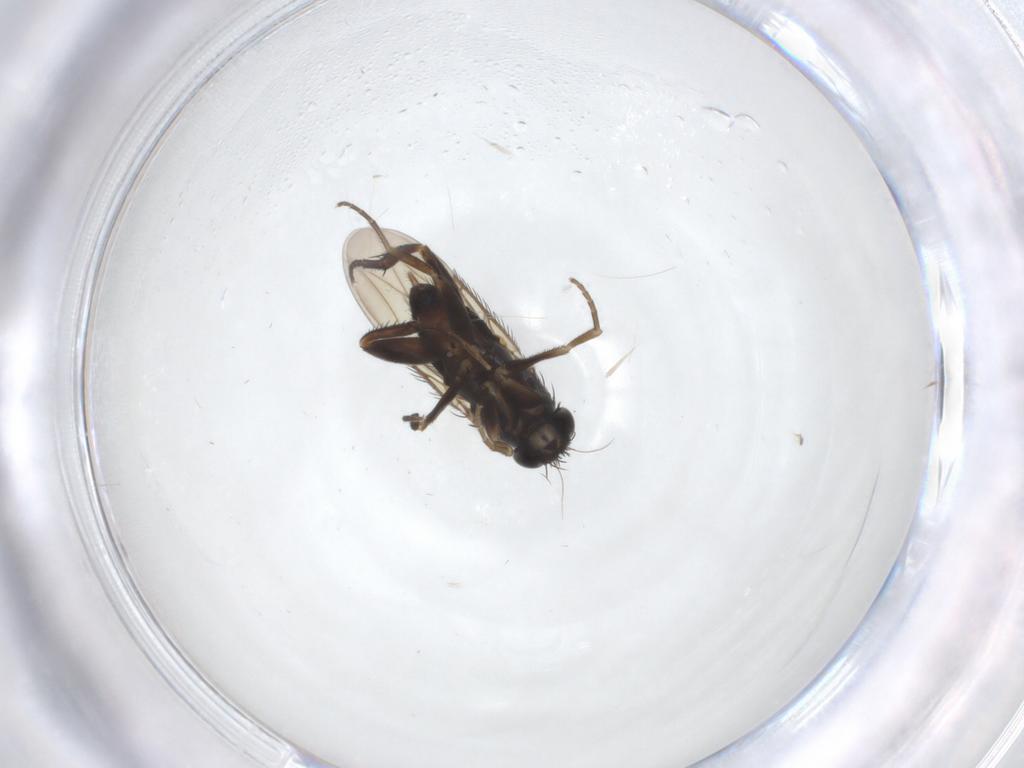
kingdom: Animalia
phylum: Arthropoda
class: Insecta
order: Diptera
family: Phoridae
